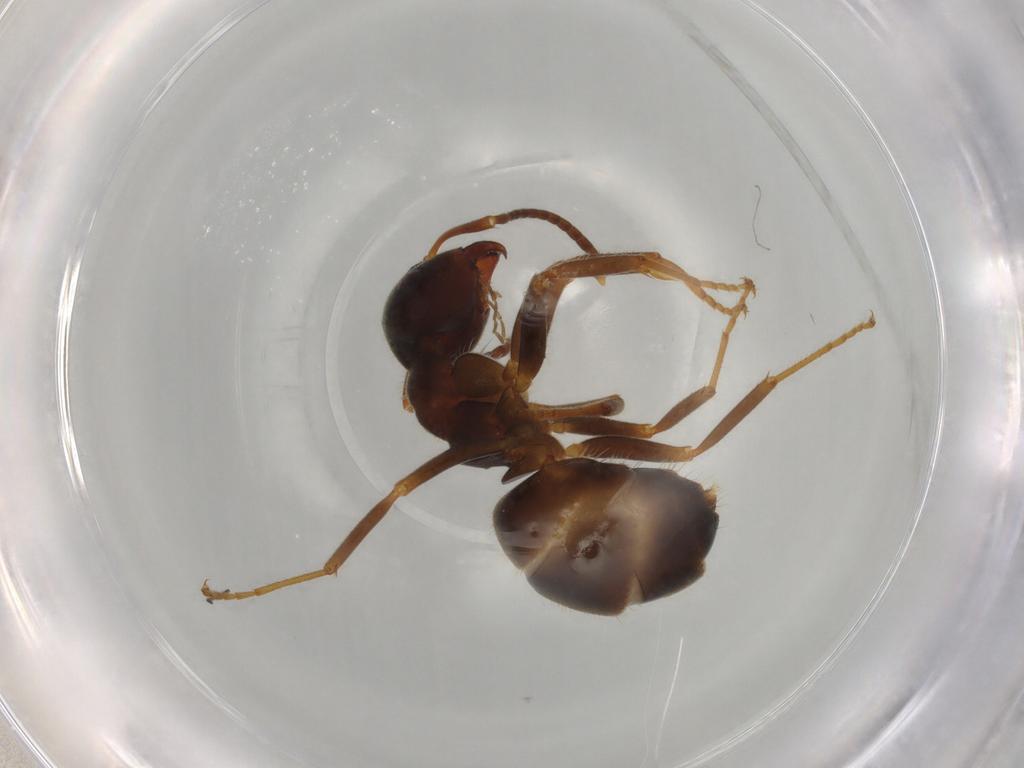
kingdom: Animalia
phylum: Arthropoda
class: Insecta
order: Hymenoptera
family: Formicidae
